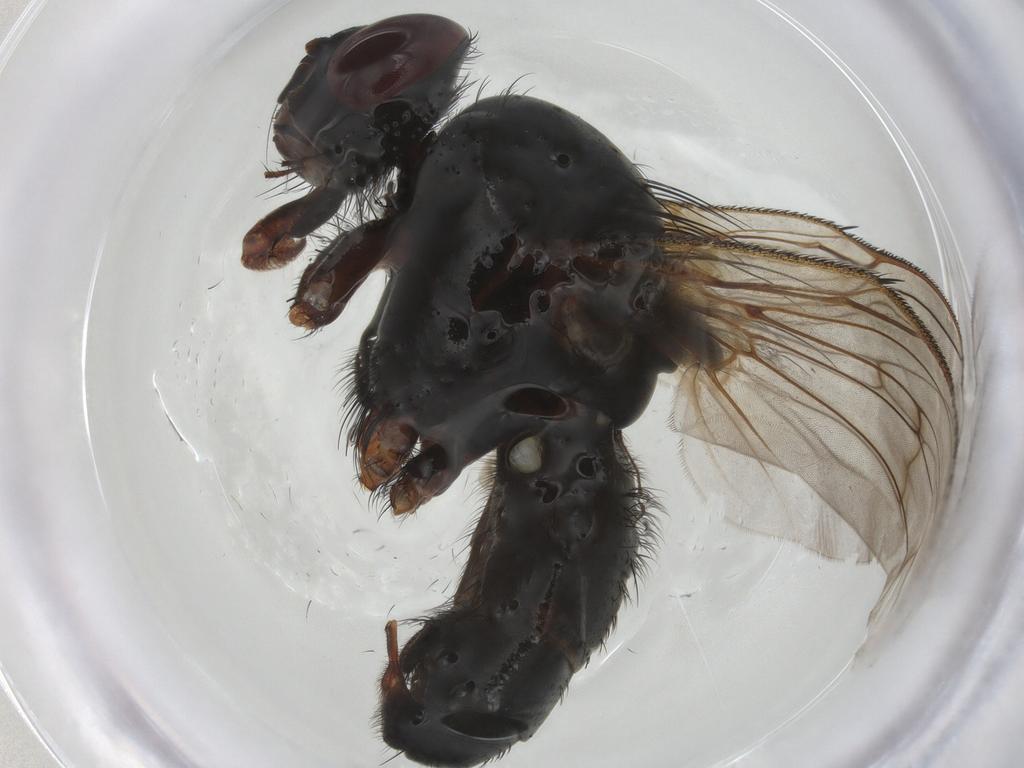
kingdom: Animalia
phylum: Arthropoda
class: Insecta
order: Diptera
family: Anthomyiidae
